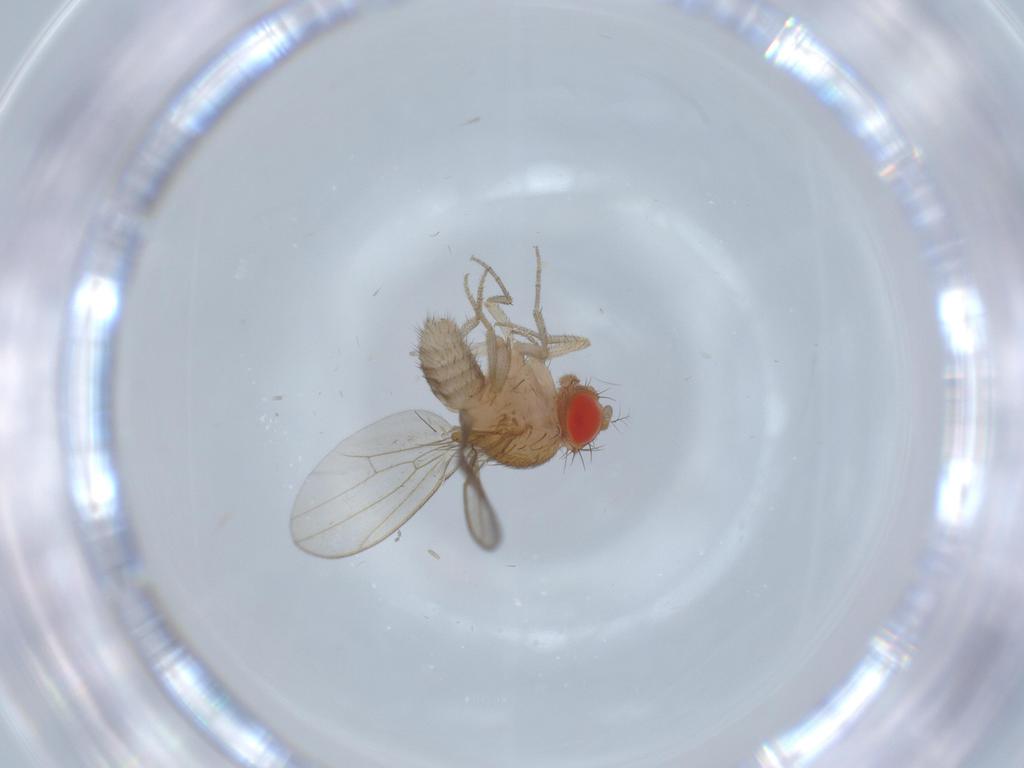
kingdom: Animalia
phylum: Arthropoda
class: Insecta
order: Diptera
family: Drosophilidae
